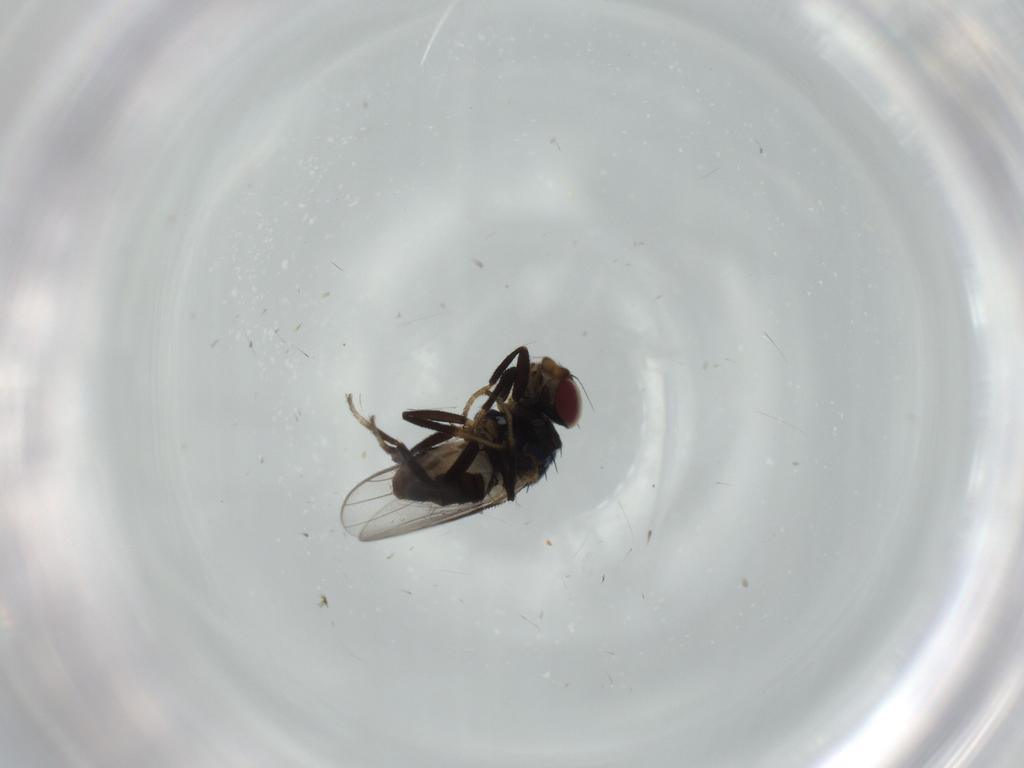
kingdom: Animalia
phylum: Arthropoda
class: Insecta
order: Diptera
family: Chloropidae
